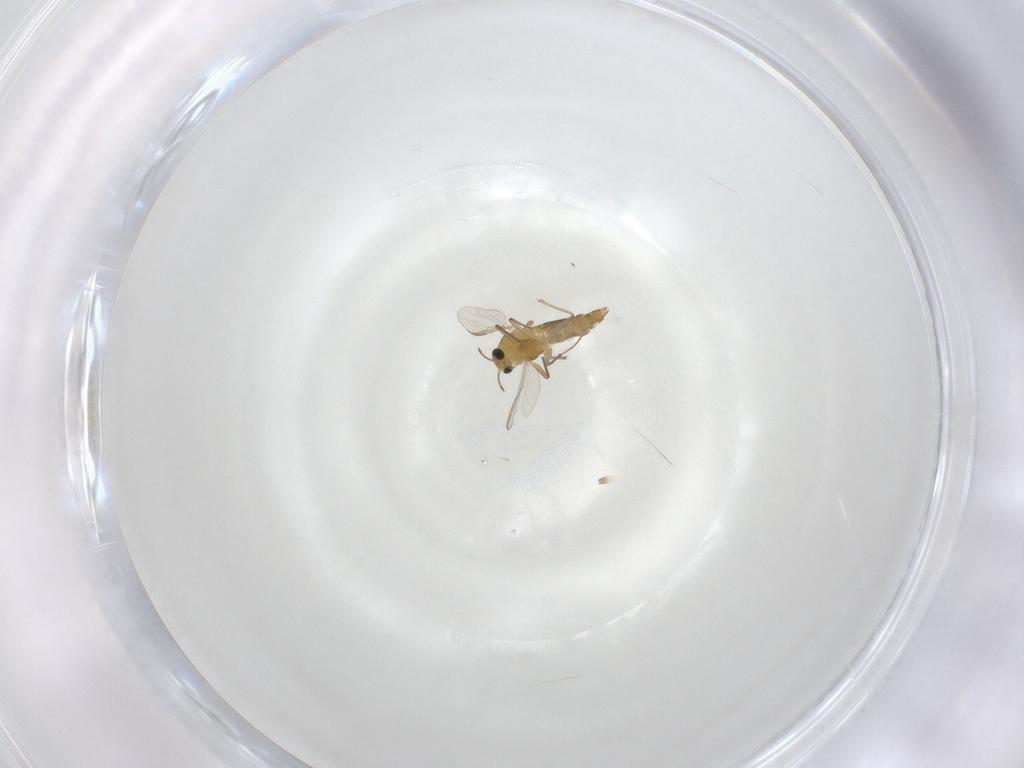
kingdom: Animalia
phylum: Arthropoda
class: Insecta
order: Diptera
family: Chironomidae
